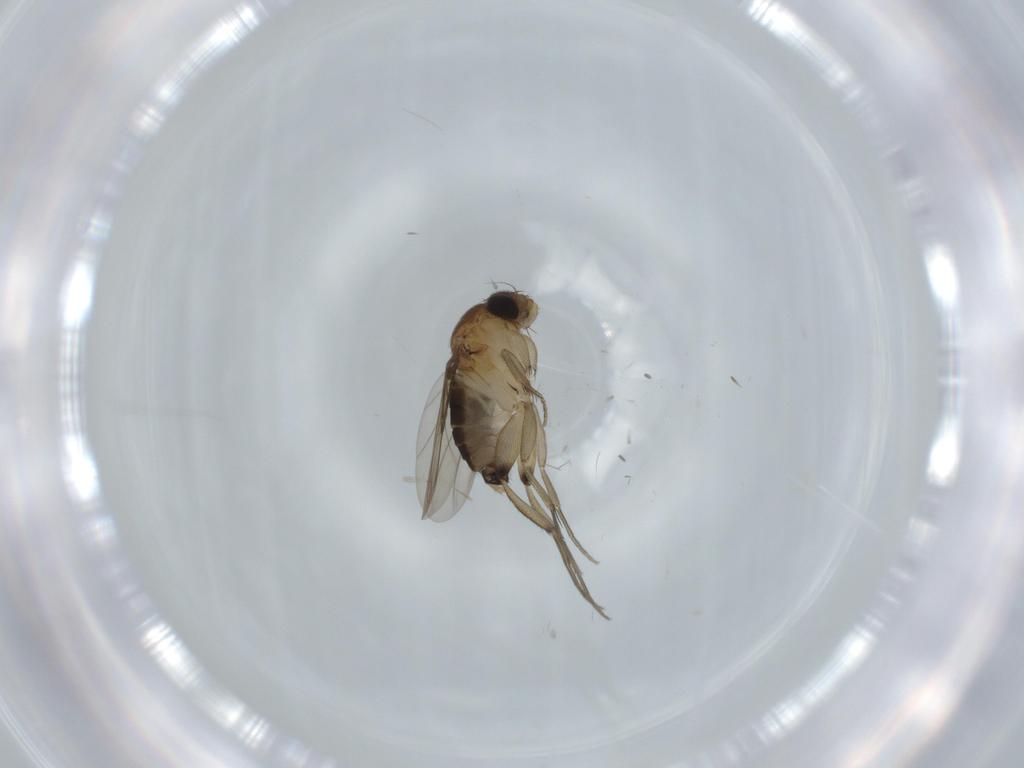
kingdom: Animalia
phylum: Arthropoda
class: Insecta
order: Diptera
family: Phoridae
